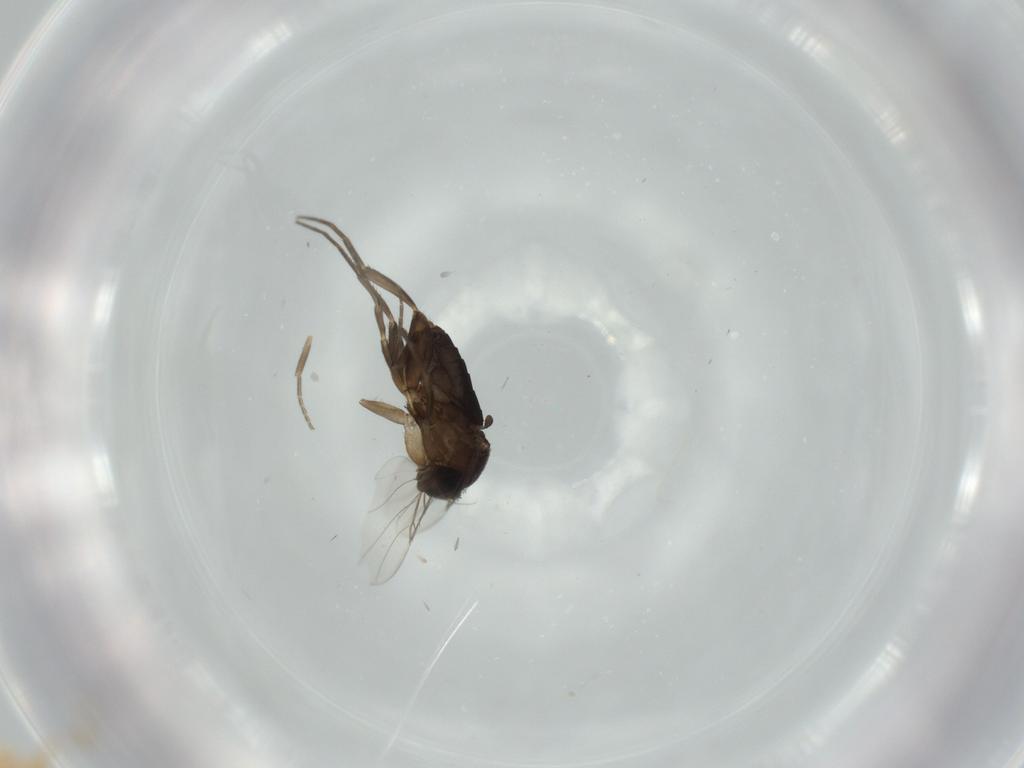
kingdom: Animalia
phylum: Arthropoda
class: Insecta
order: Diptera
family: Phoridae
